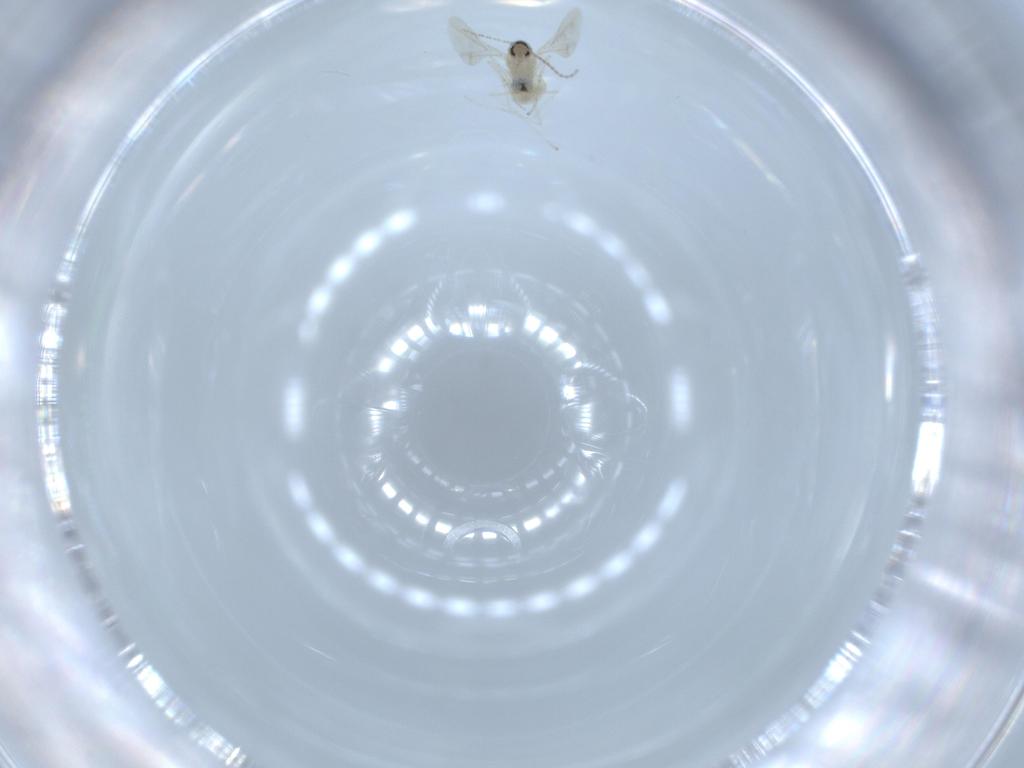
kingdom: Animalia
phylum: Arthropoda
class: Insecta
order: Diptera
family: Sciaridae
